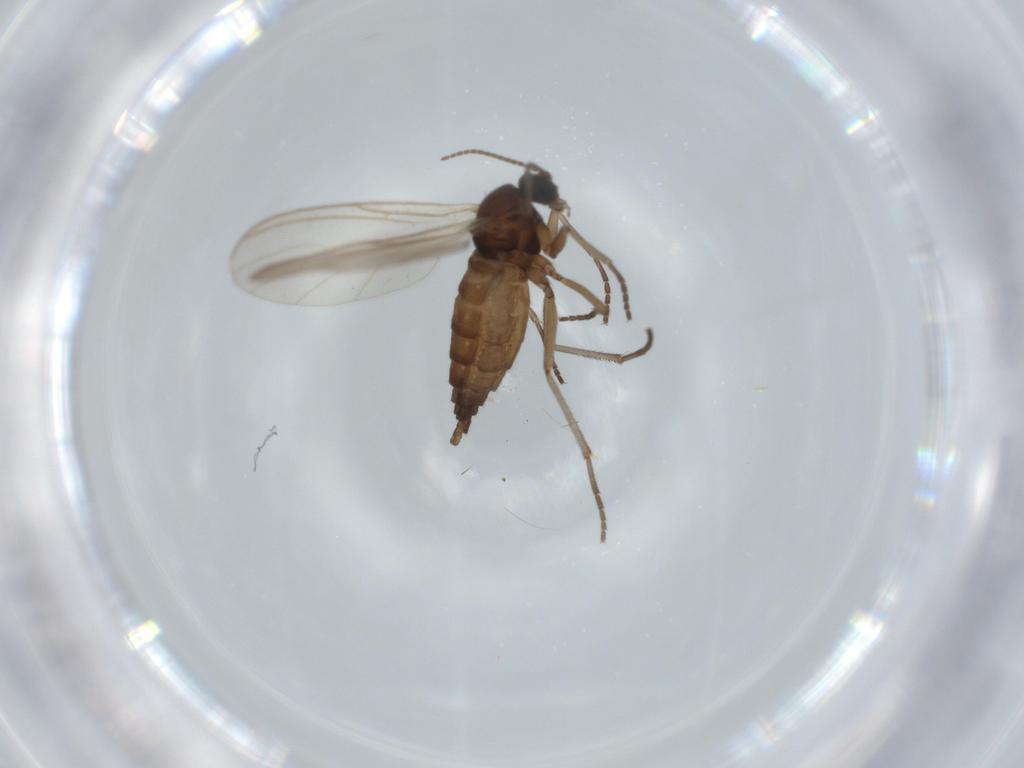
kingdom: Animalia
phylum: Arthropoda
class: Insecta
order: Diptera
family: Sciaridae
